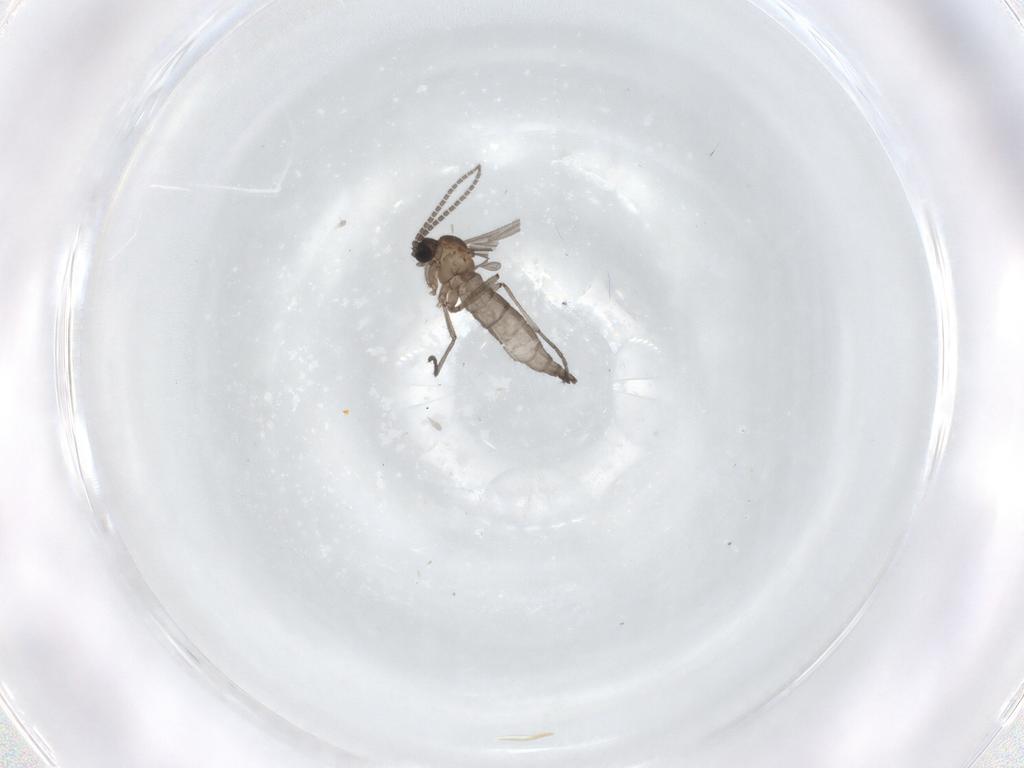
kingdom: Animalia
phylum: Arthropoda
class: Insecta
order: Diptera
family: Sciaridae
